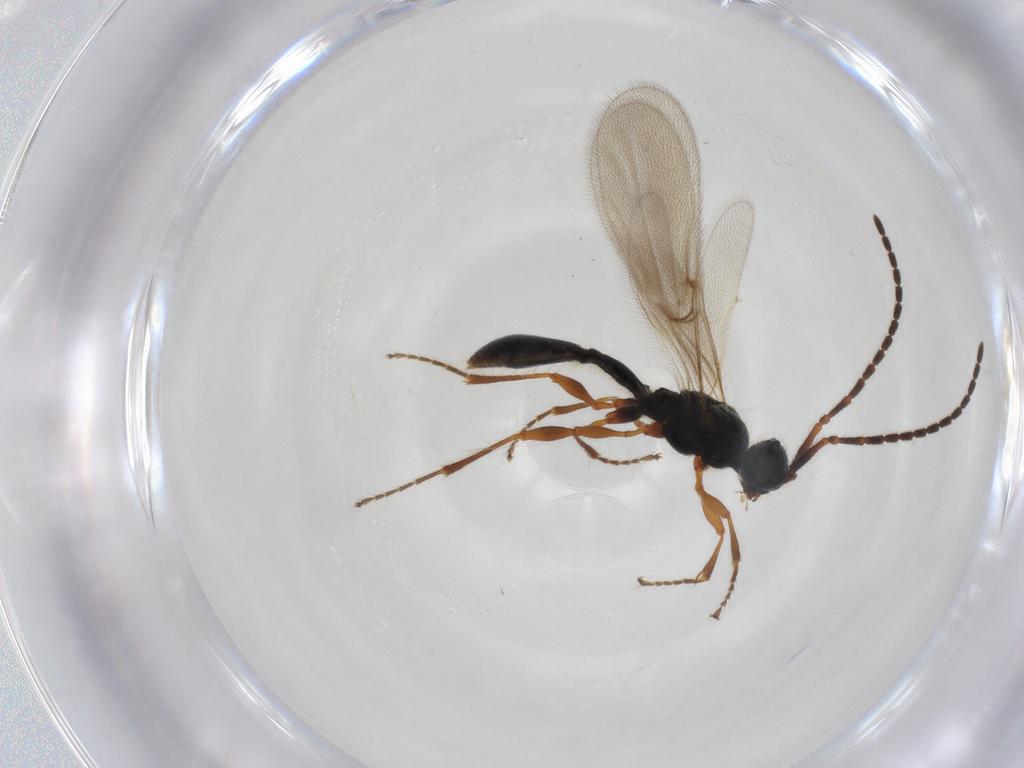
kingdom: Animalia
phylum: Arthropoda
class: Insecta
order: Hymenoptera
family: Diapriidae
